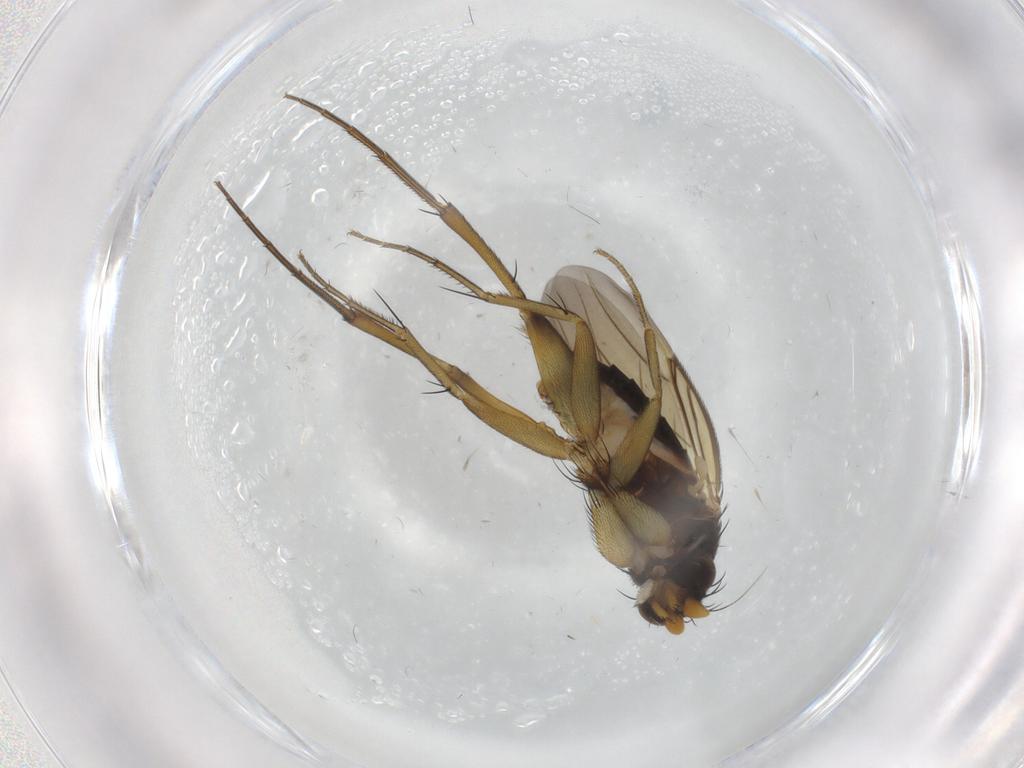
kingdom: Animalia
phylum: Arthropoda
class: Insecta
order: Diptera
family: Phoridae
